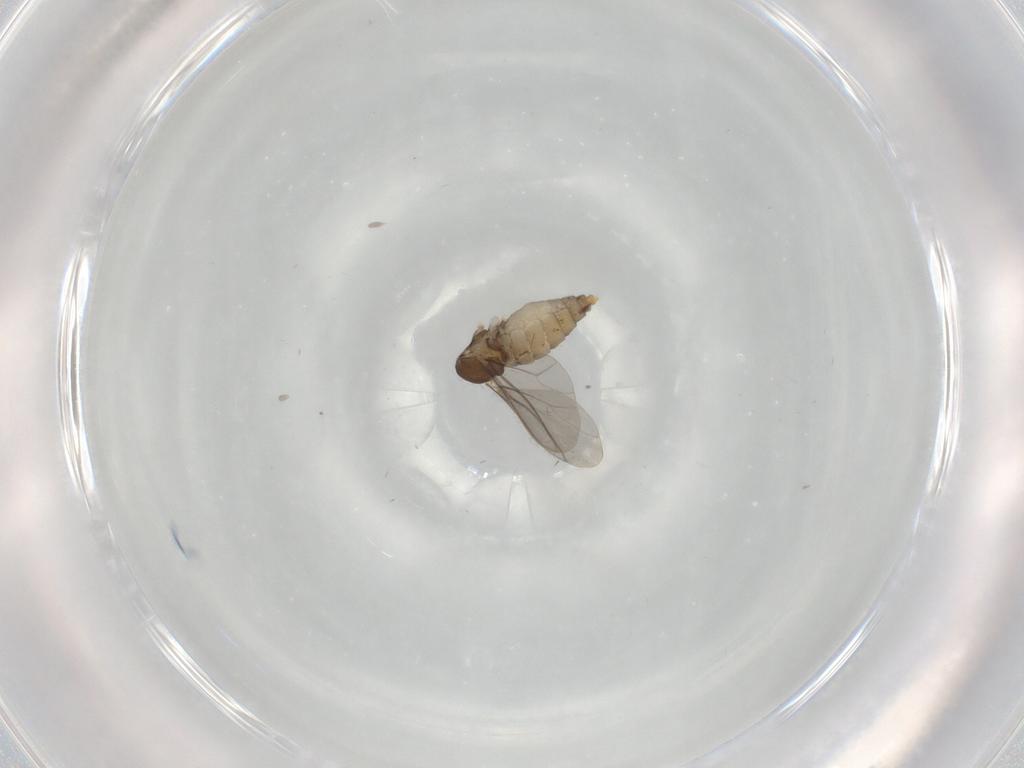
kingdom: Animalia
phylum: Arthropoda
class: Insecta
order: Diptera
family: Cecidomyiidae
